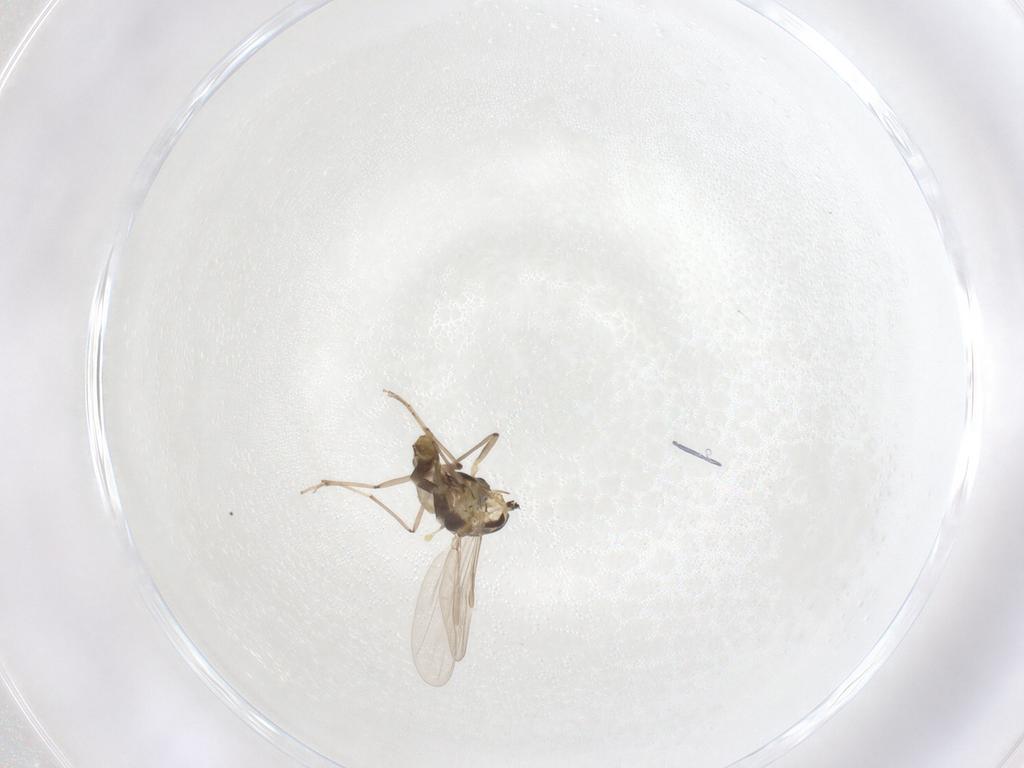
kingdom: Animalia
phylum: Arthropoda
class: Insecta
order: Diptera
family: Chironomidae
